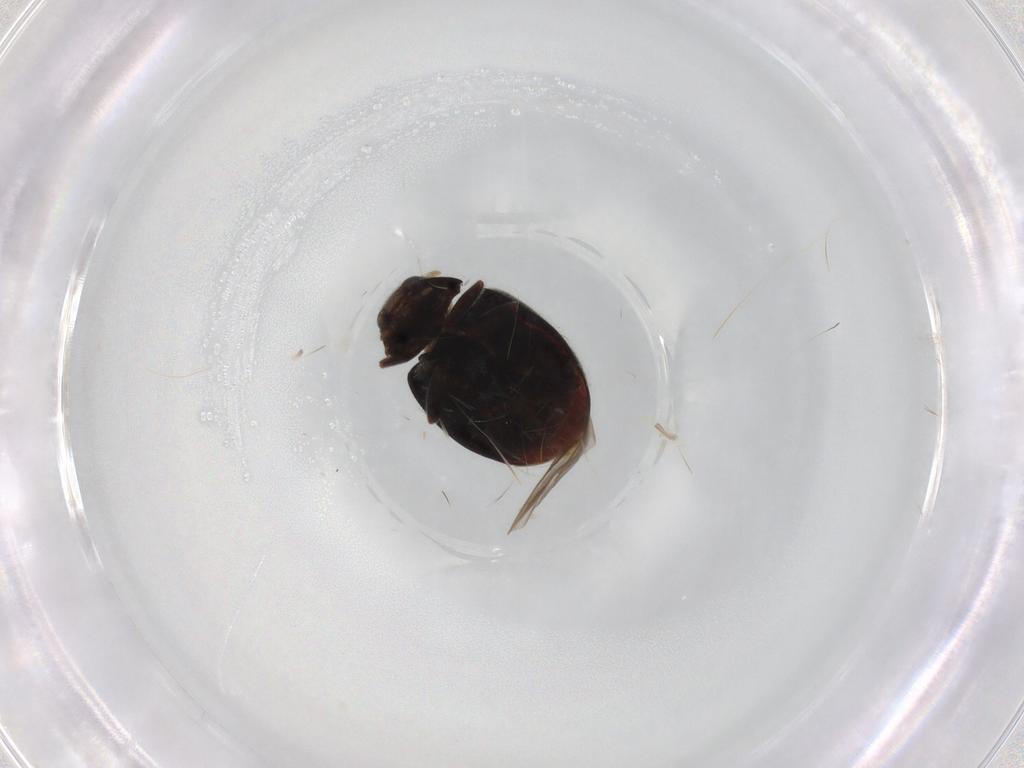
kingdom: Animalia
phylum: Arthropoda
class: Insecta
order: Coleoptera
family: Coccinellidae
